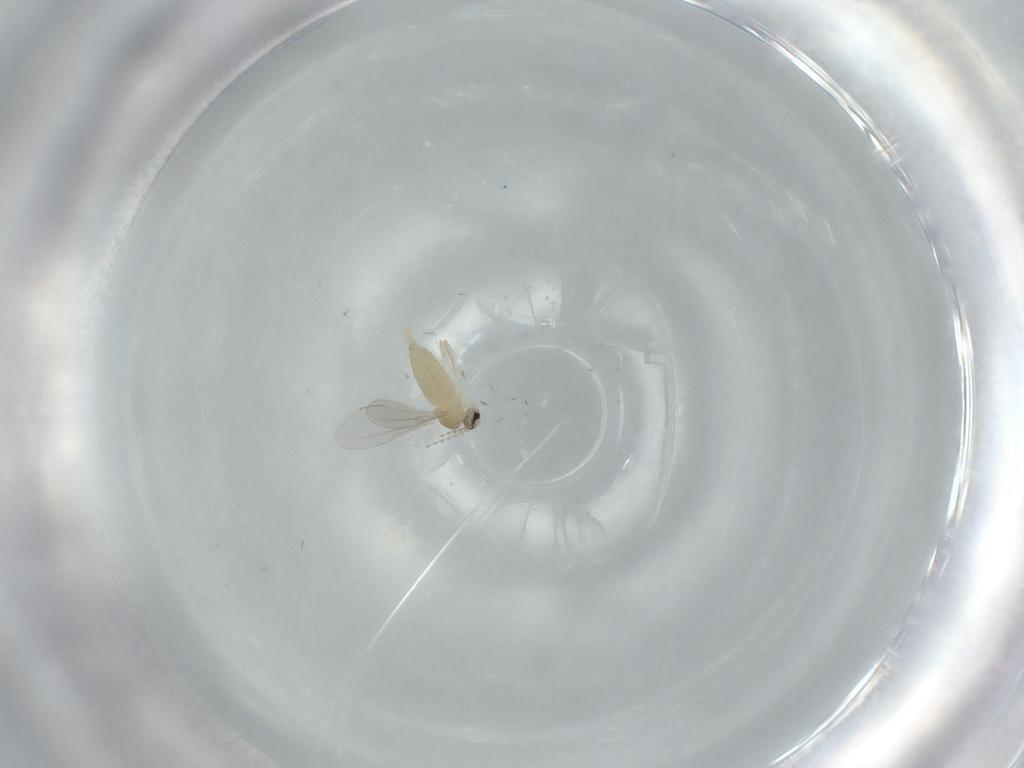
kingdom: Animalia
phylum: Arthropoda
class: Insecta
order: Diptera
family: Cecidomyiidae
